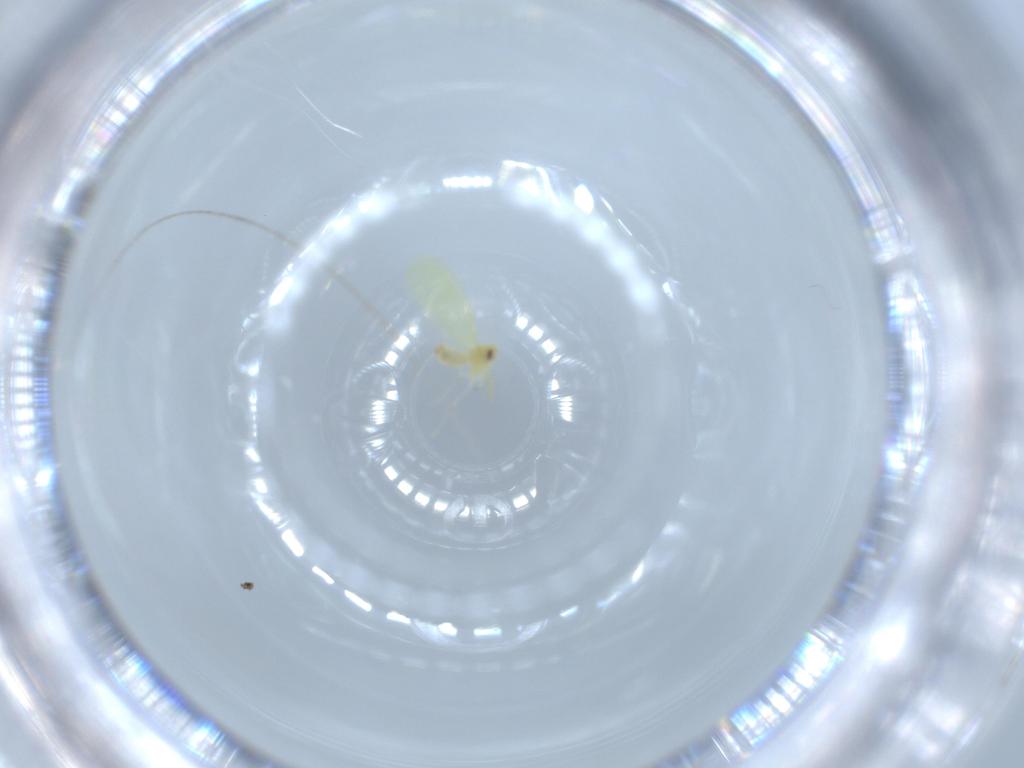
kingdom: Animalia
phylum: Arthropoda
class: Insecta
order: Hemiptera
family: Aleyrodidae
